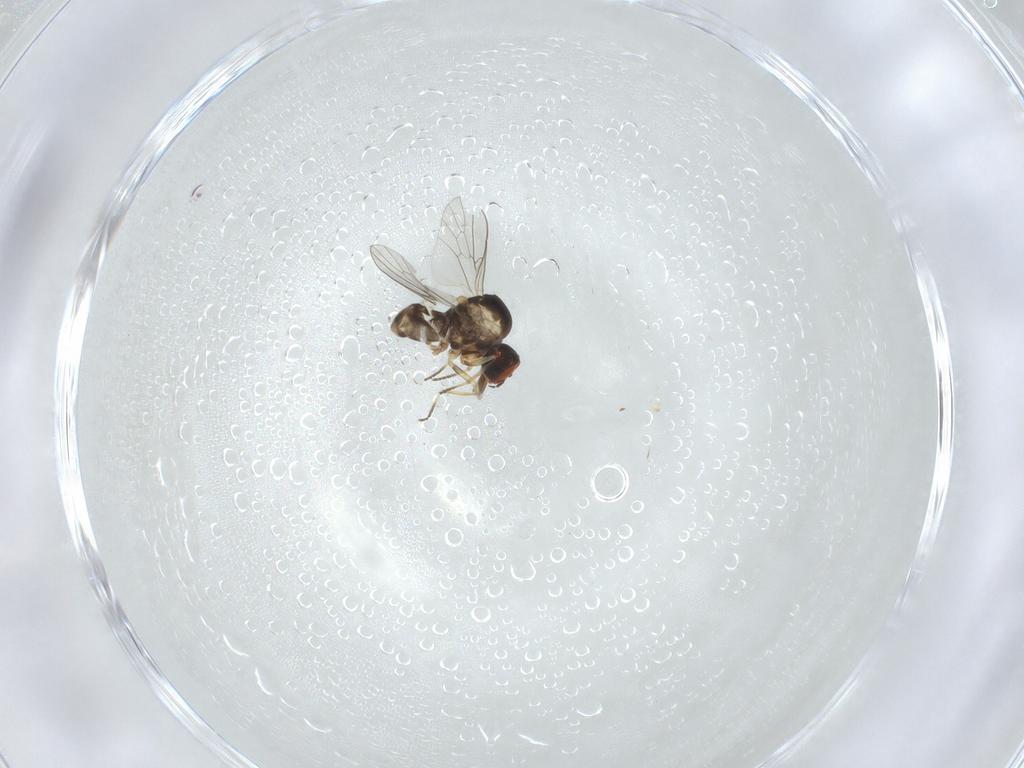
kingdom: Animalia
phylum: Arthropoda
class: Insecta
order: Diptera
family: Bombyliidae
